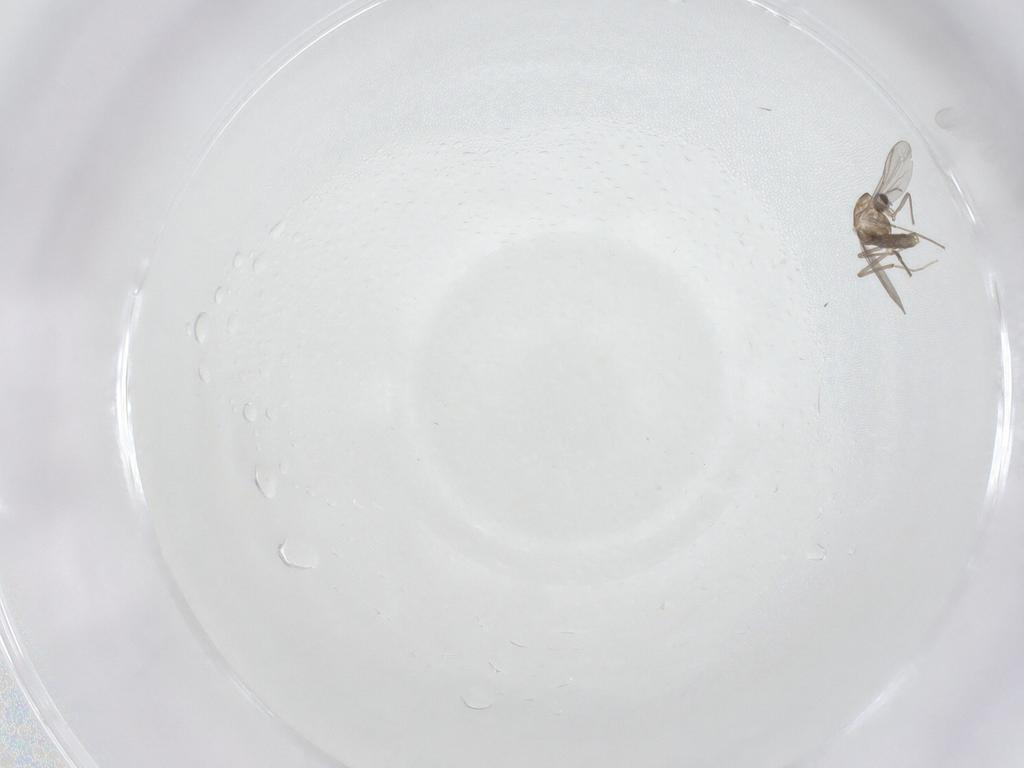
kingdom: Animalia
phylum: Arthropoda
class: Insecta
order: Diptera
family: Chironomidae
